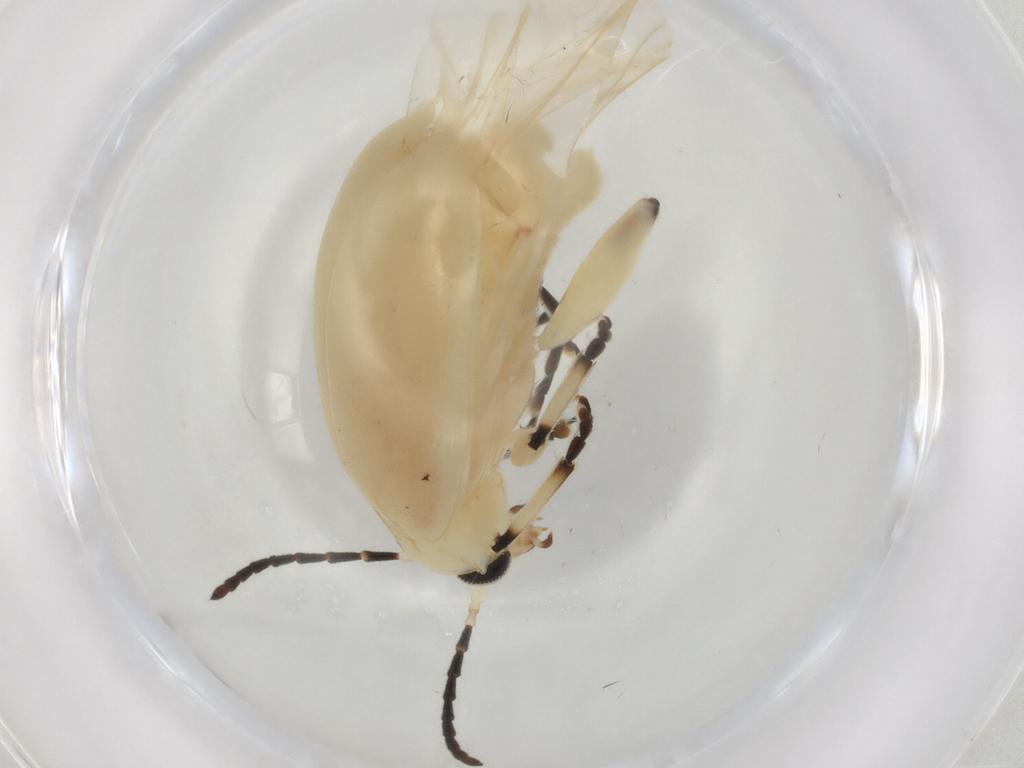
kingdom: Animalia
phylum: Arthropoda
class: Insecta
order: Coleoptera
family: Chrysomelidae
